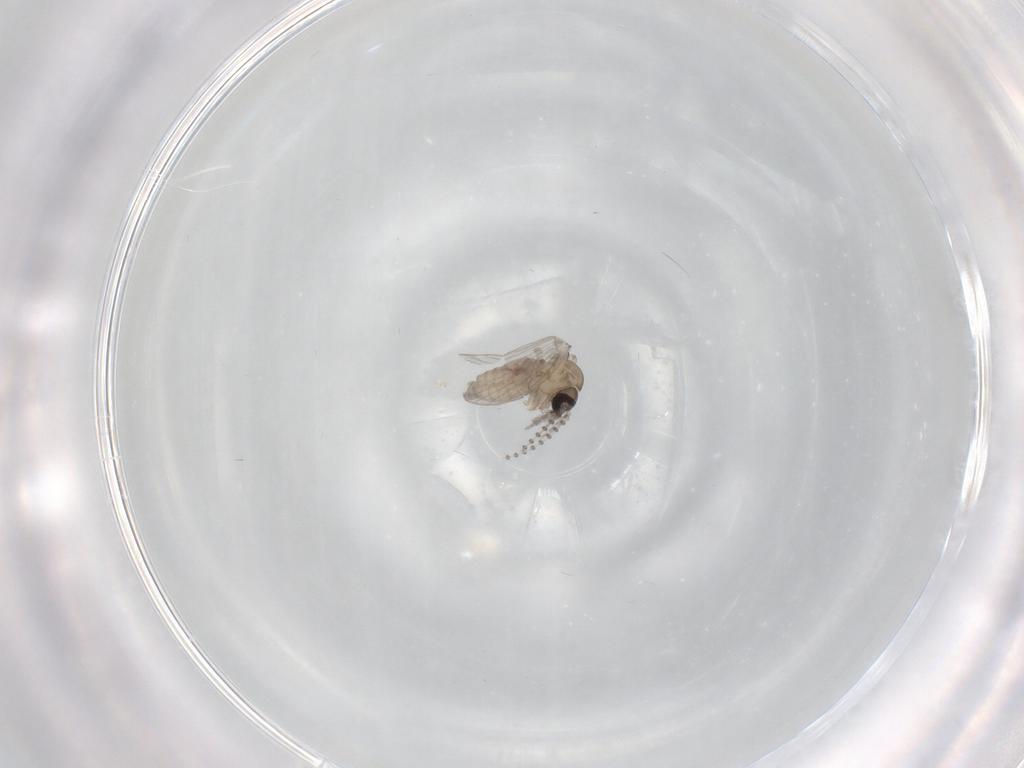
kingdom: Animalia
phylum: Arthropoda
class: Insecta
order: Diptera
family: Psychodidae
